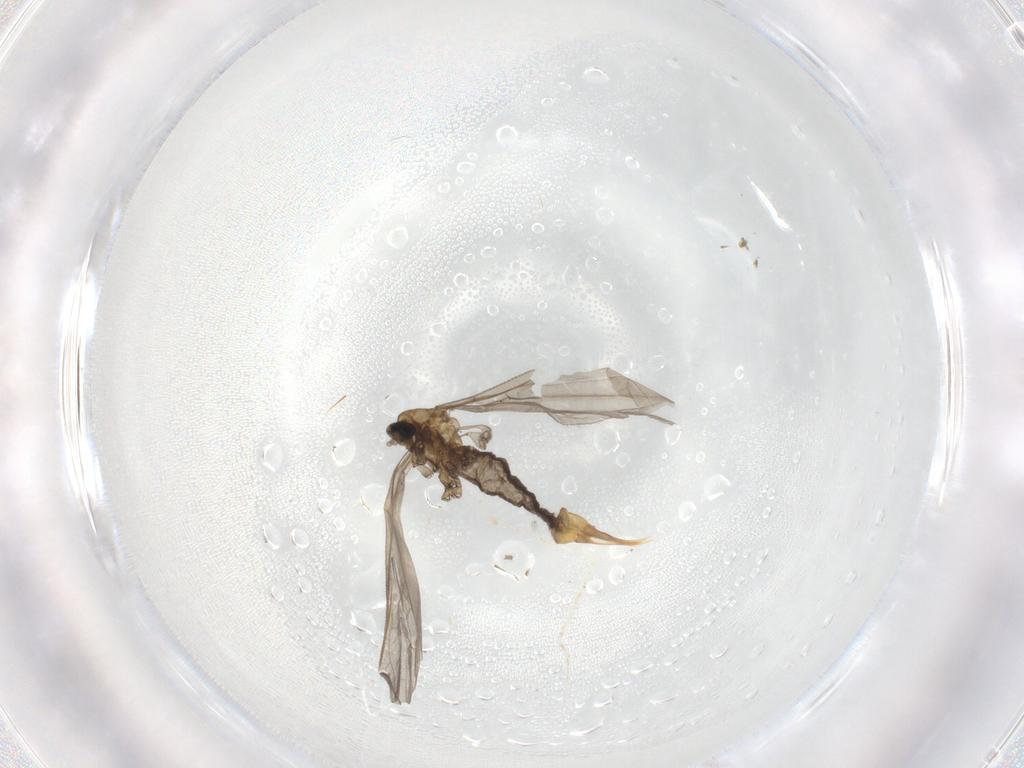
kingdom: Animalia
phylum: Arthropoda
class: Insecta
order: Diptera
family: Limoniidae
